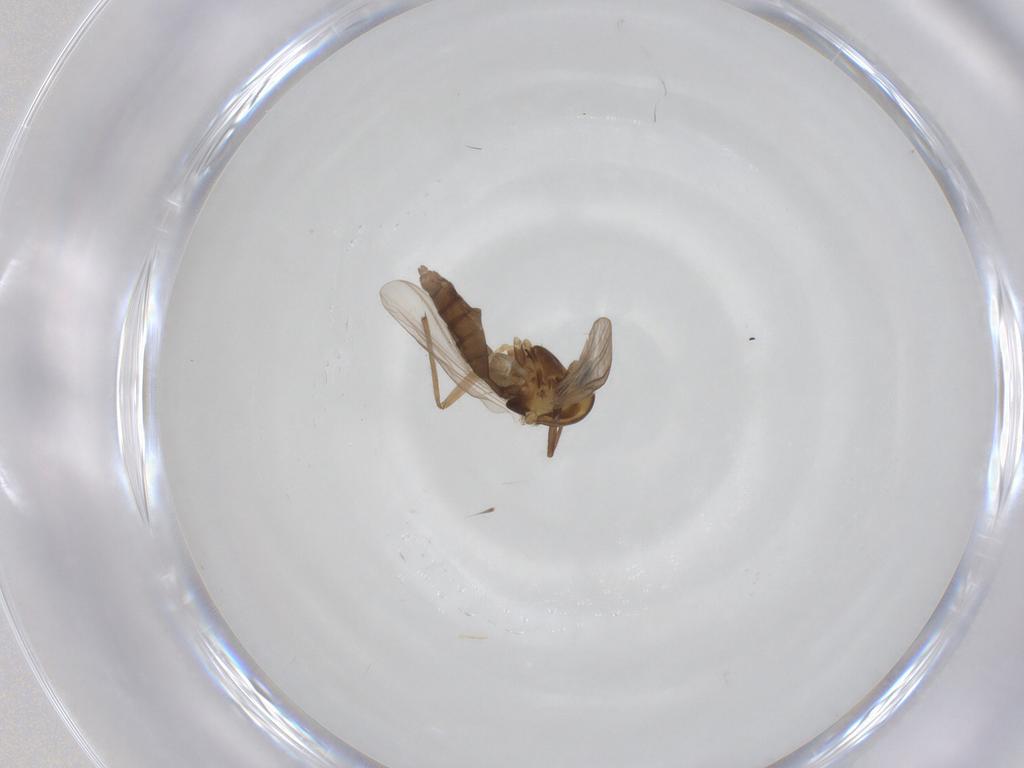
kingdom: Animalia
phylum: Arthropoda
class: Insecta
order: Diptera
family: Chironomidae
